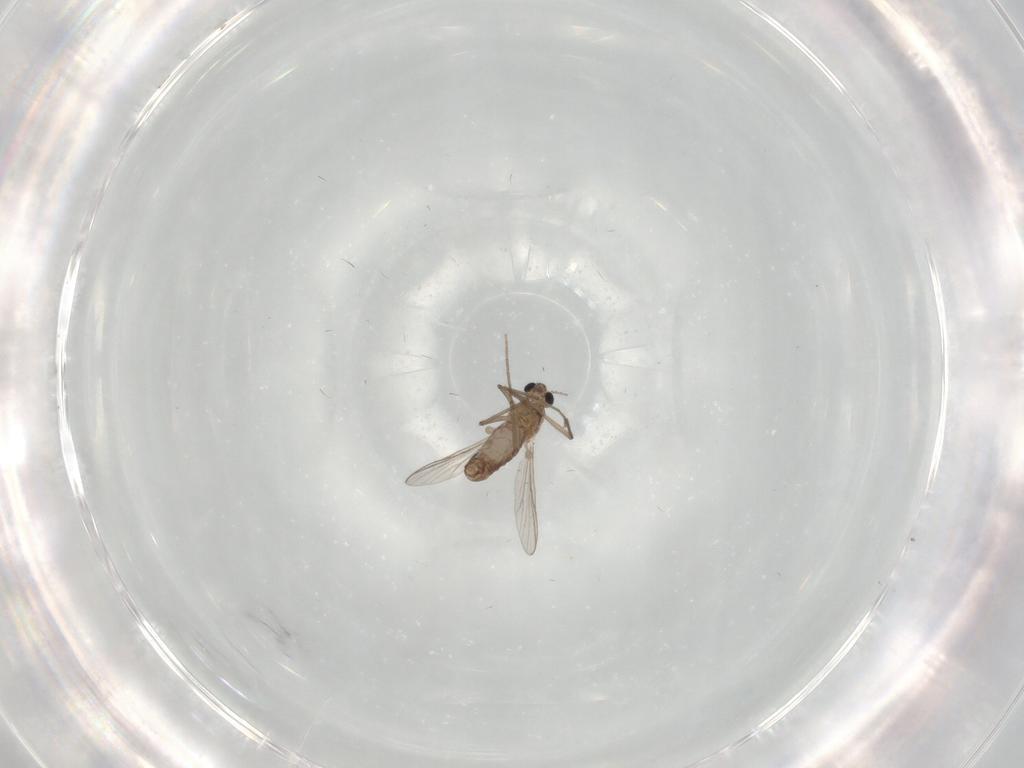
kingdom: Animalia
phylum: Arthropoda
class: Insecta
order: Diptera
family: Chironomidae
